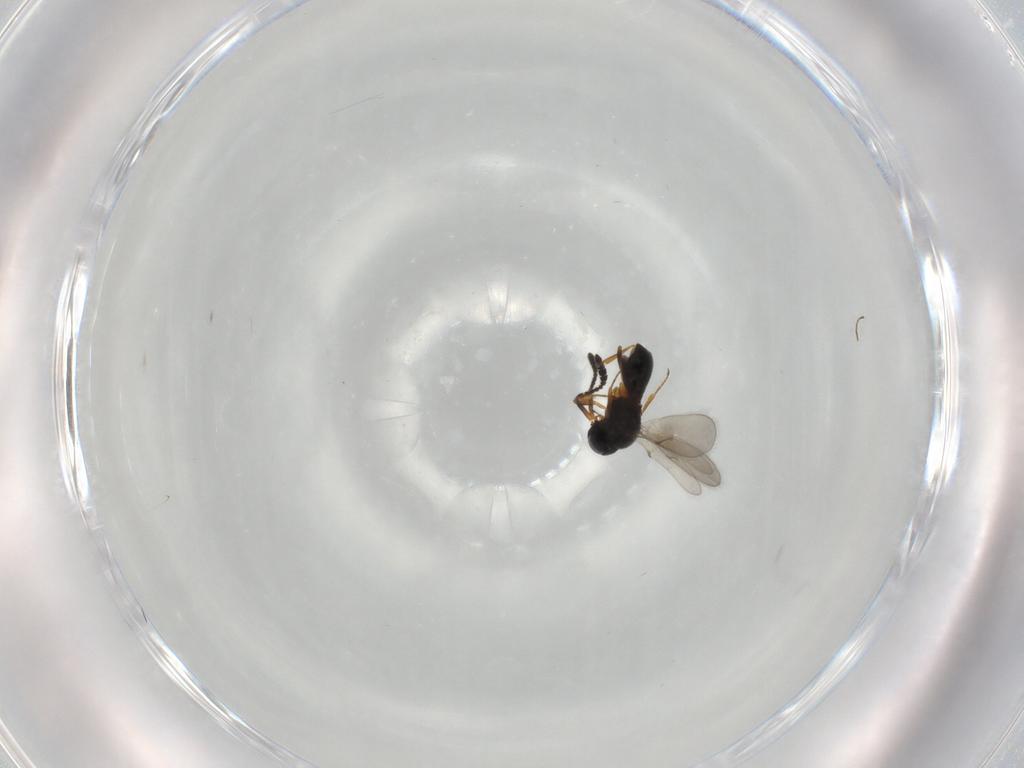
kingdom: Animalia
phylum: Arthropoda
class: Insecta
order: Hymenoptera
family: Scelionidae
